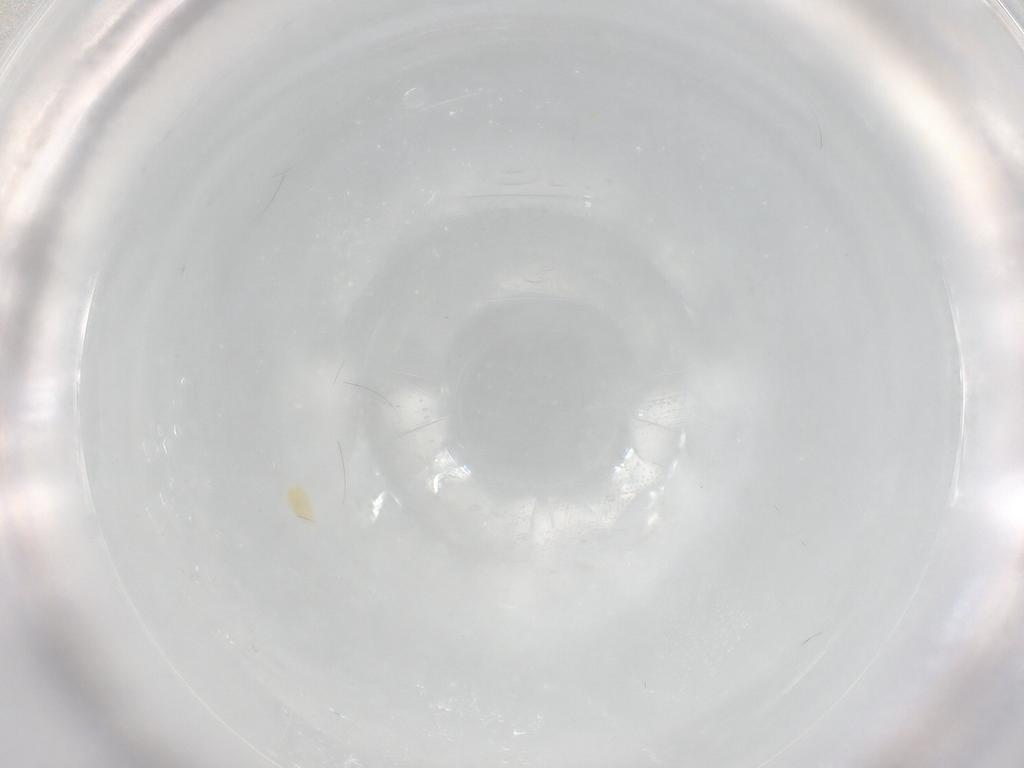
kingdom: Animalia
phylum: Arthropoda
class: Arachnida
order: Trombidiformes
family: Eupodidae
